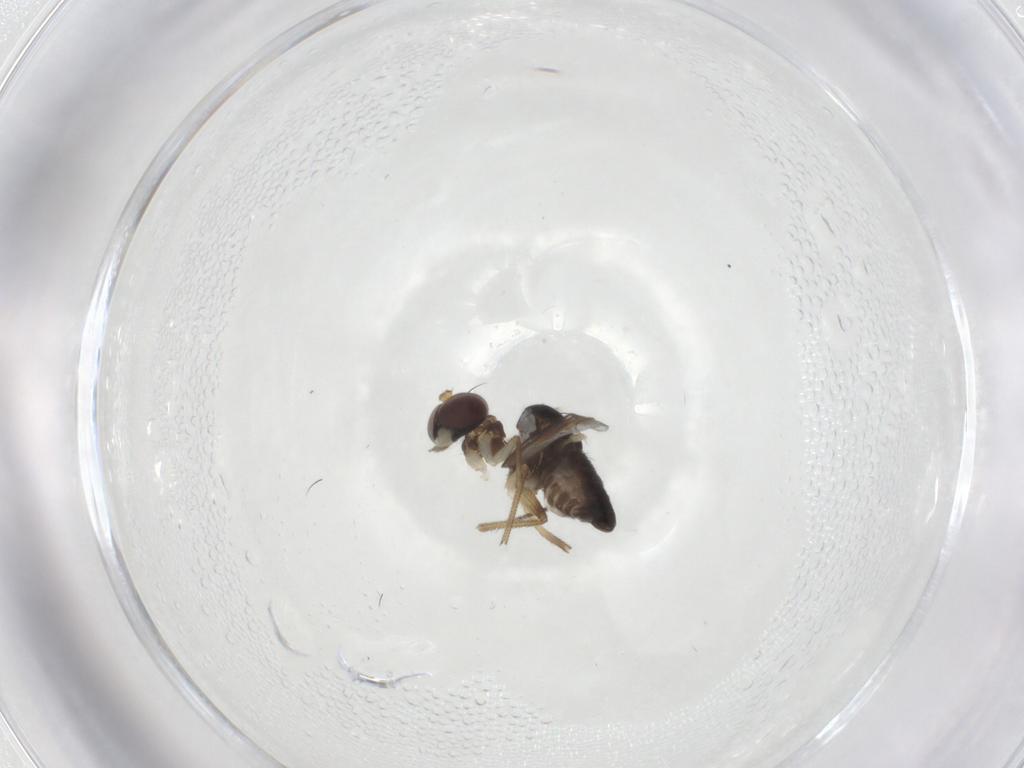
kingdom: Animalia
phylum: Arthropoda
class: Insecta
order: Diptera
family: Dolichopodidae
